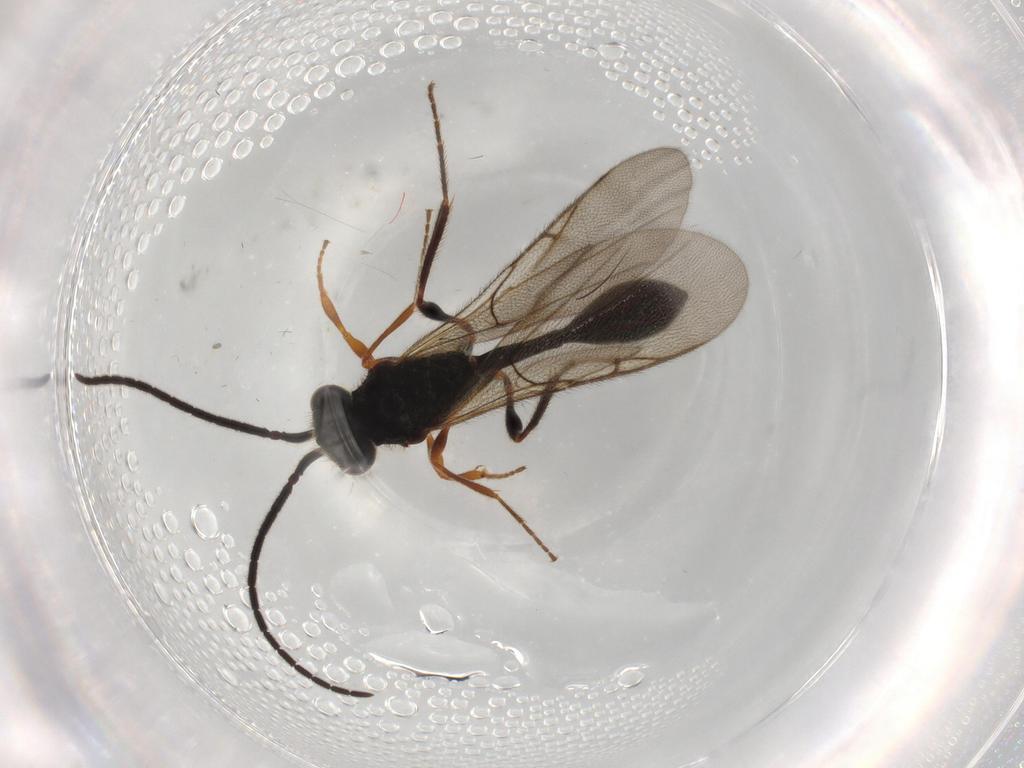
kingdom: Animalia
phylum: Arthropoda
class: Insecta
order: Hymenoptera
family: Diapriidae
